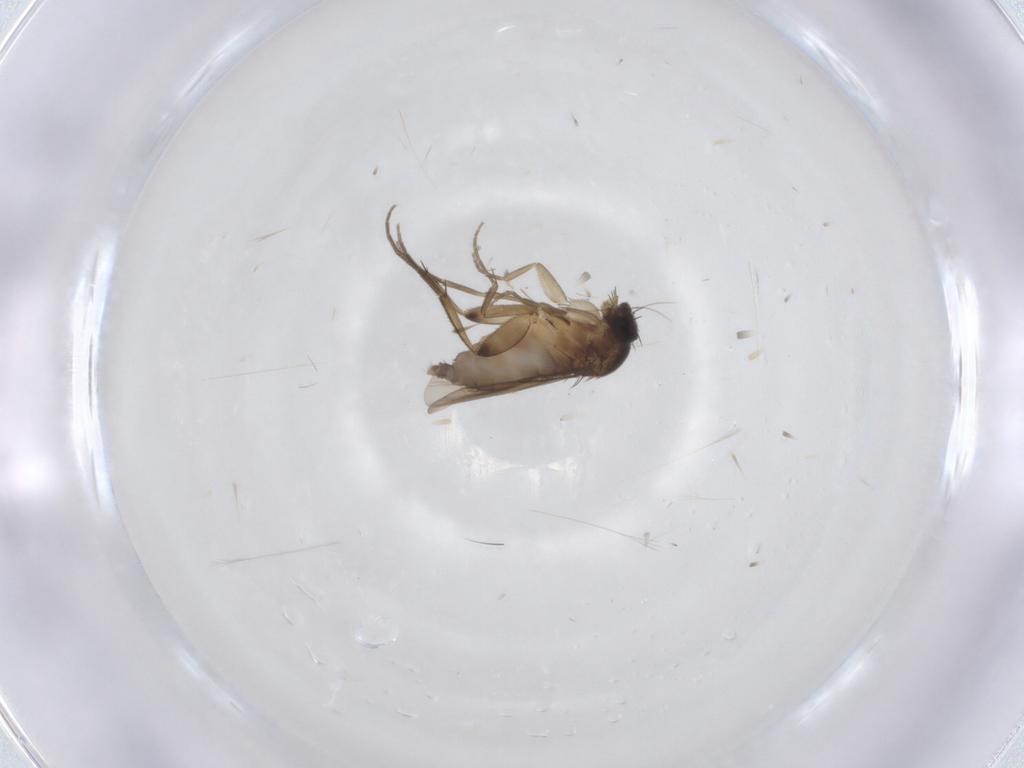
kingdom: Animalia
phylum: Arthropoda
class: Insecta
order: Diptera
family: Phoridae
